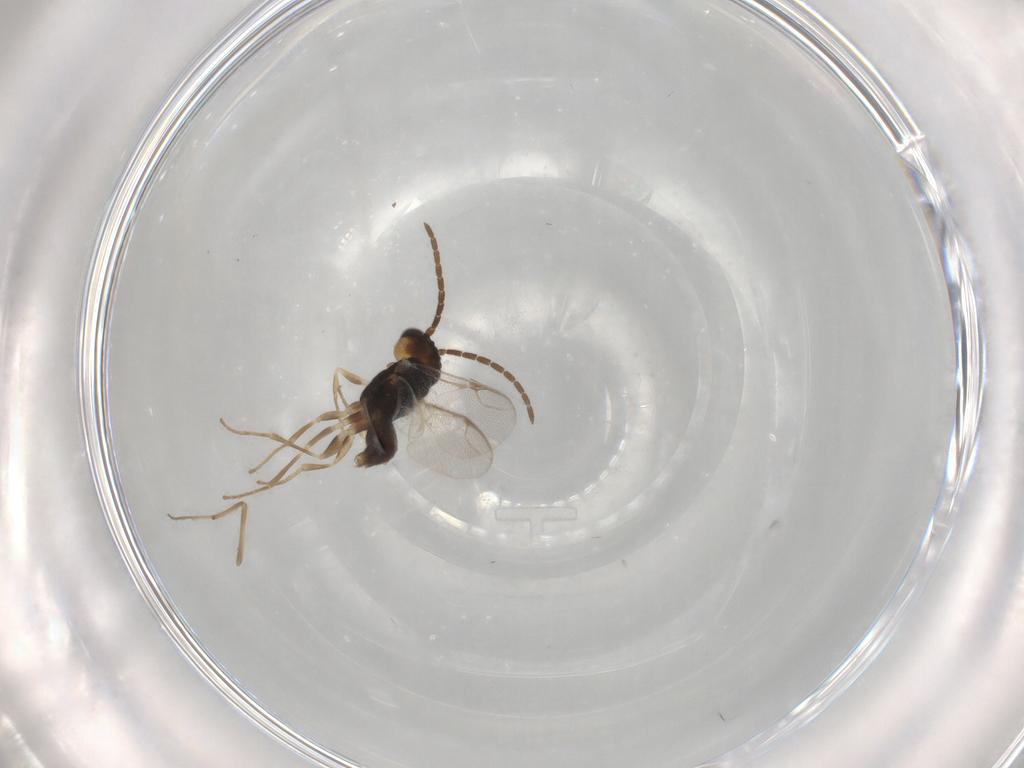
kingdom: Animalia
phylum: Arthropoda
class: Insecta
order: Hymenoptera
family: Dryinidae
